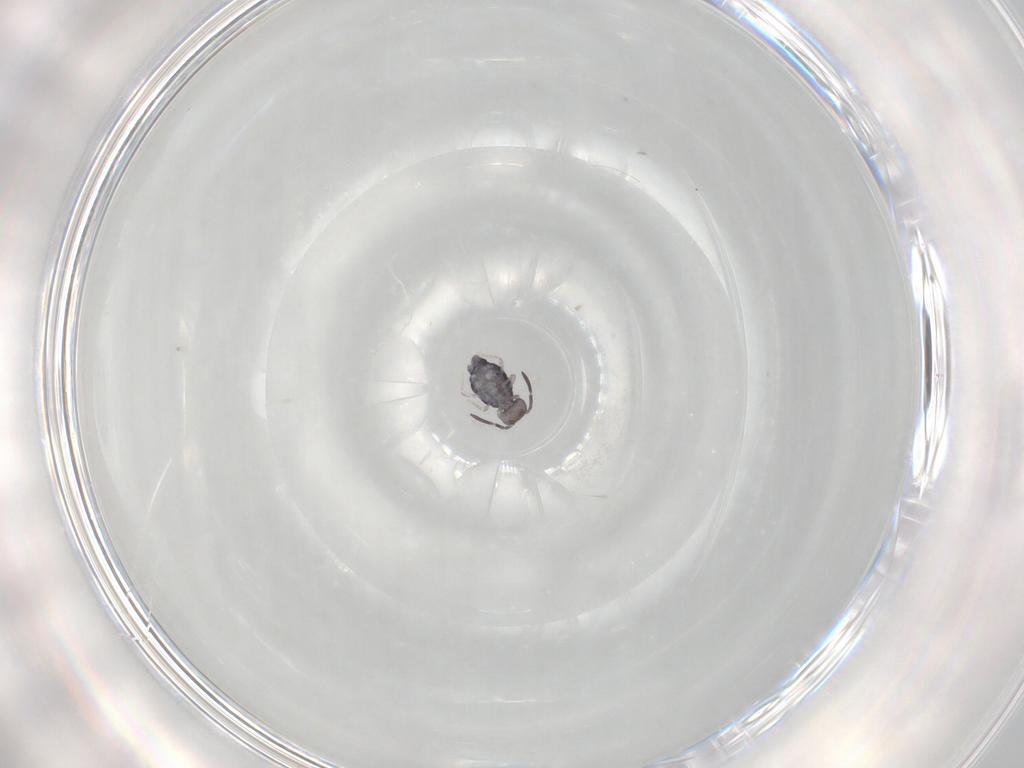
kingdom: Animalia
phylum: Arthropoda
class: Collembola
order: Symphypleona
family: Katiannidae
